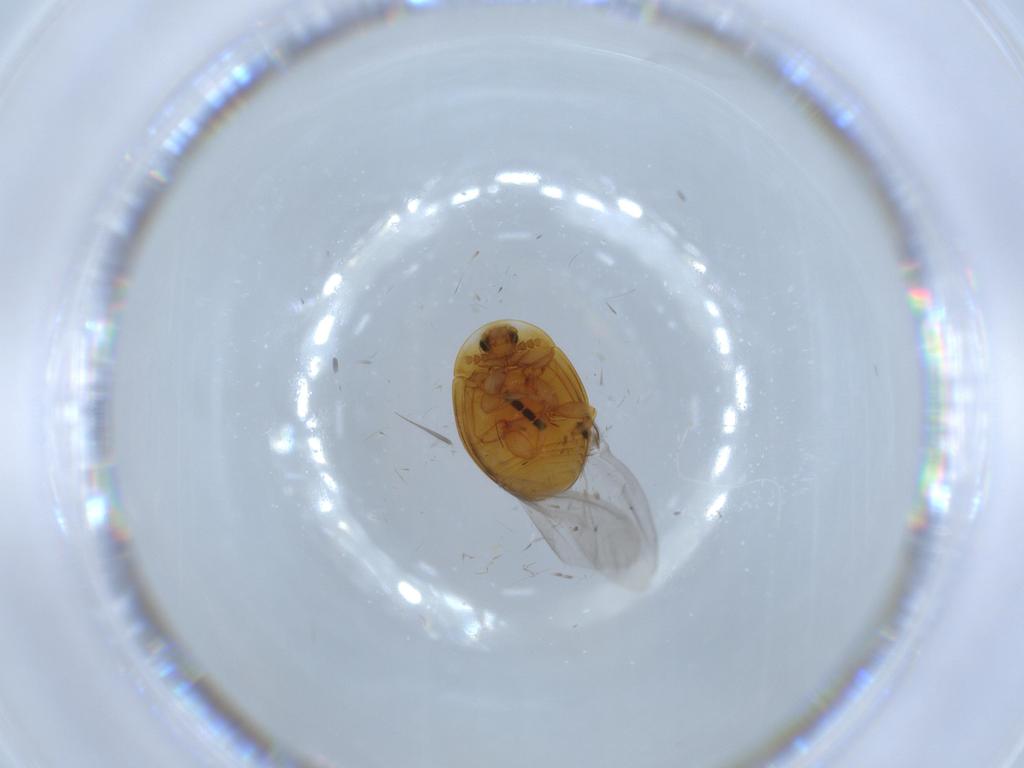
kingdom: Animalia
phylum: Arthropoda
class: Insecta
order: Coleoptera
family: Corylophidae
